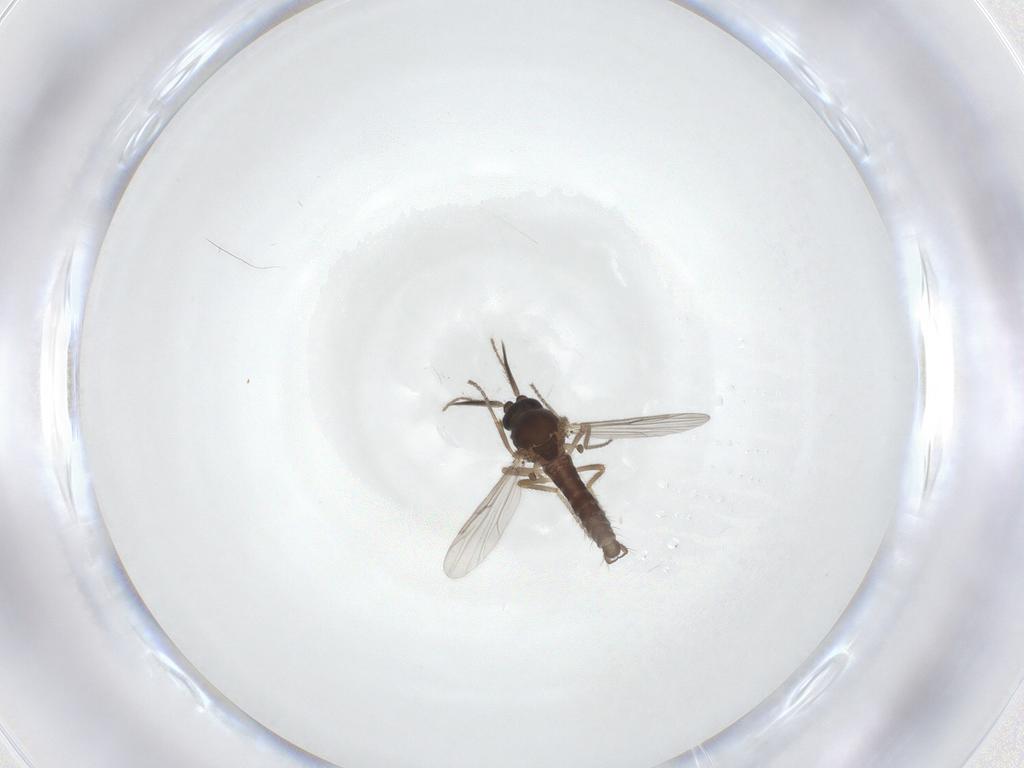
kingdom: Animalia
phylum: Arthropoda
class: Insecta
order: Diptera
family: Ceratopogonidae
